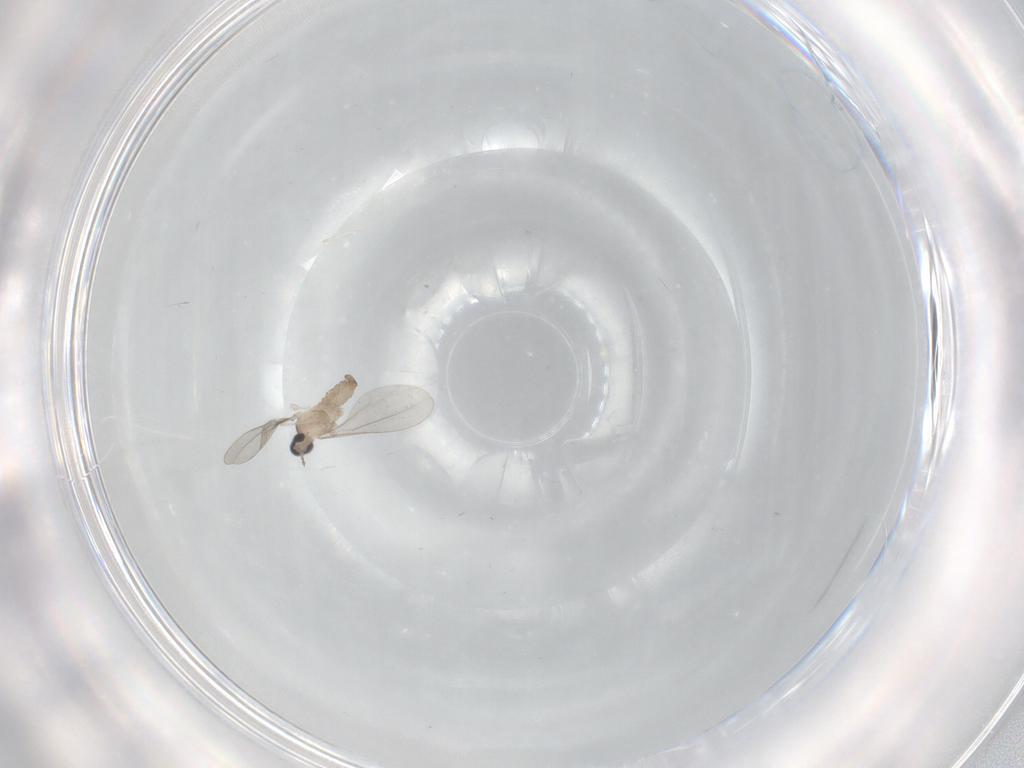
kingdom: Animalia
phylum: Arthropoda
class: Insecta
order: Diptera
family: Cecidomyiidae
